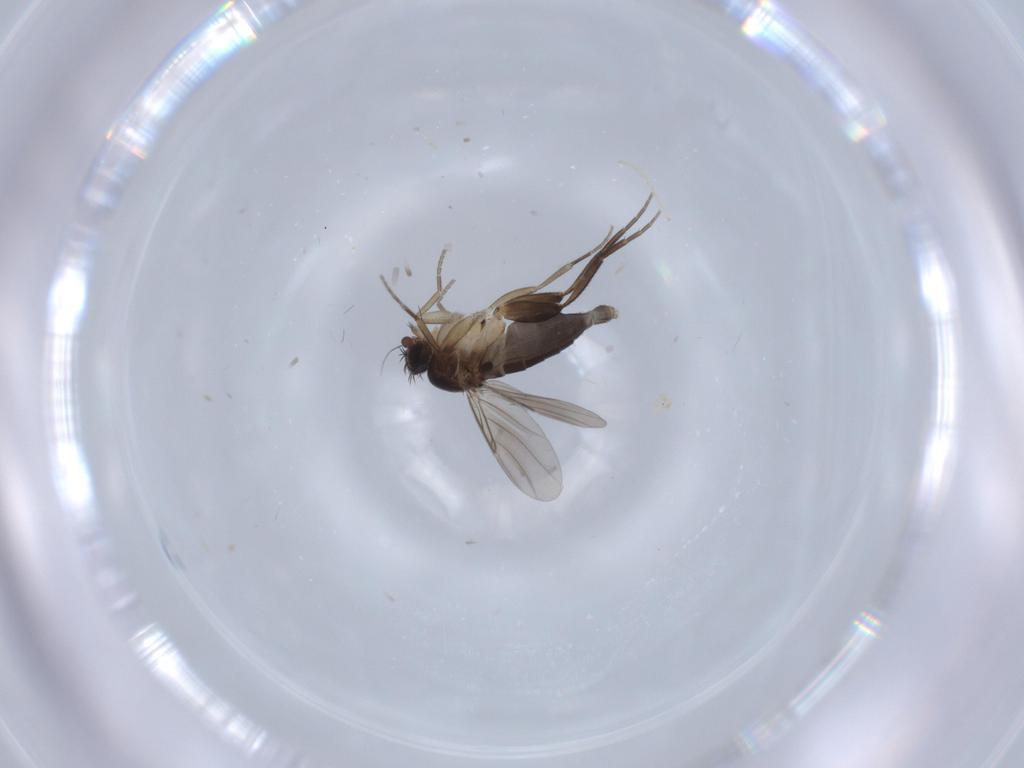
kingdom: Animalia
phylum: Arthropoda
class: Insecta
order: Diptera
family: Phoridae
